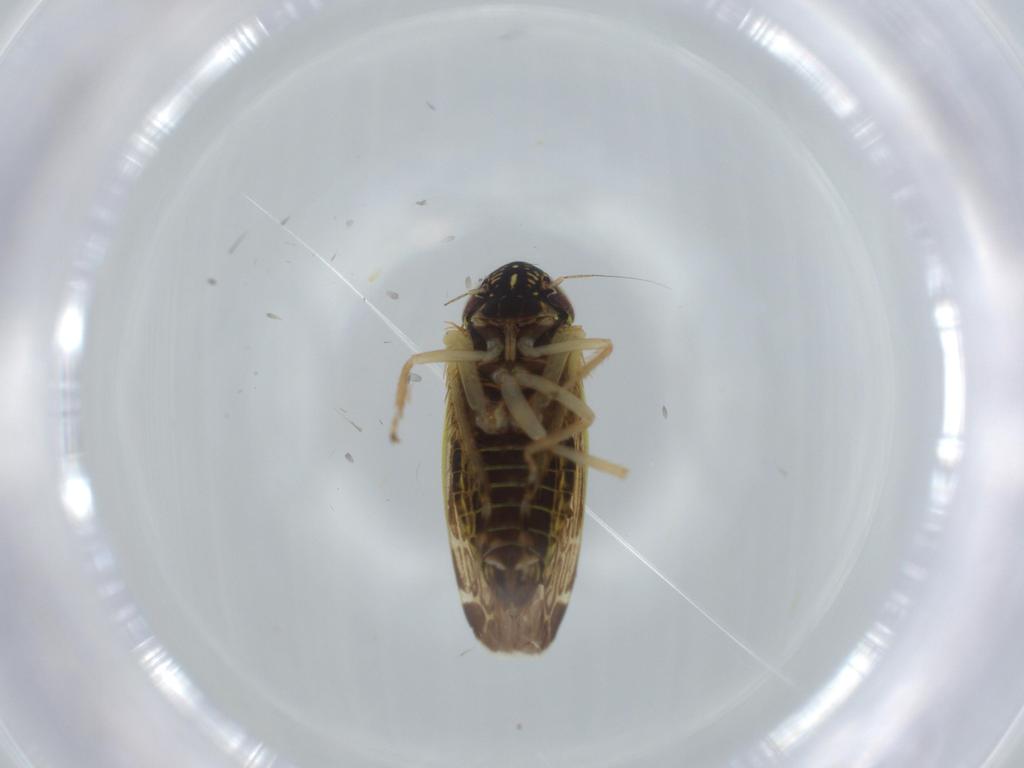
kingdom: Animalia
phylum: Arthropoda
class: Insecta
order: Hemiptera
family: Cicadellidae
